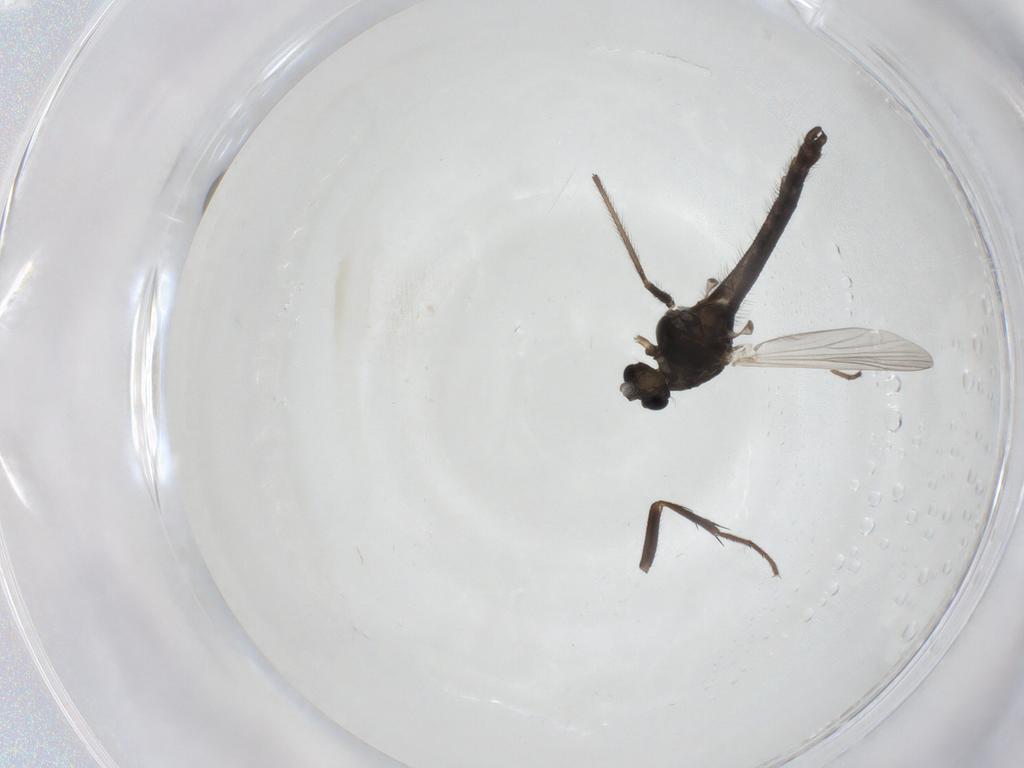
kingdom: Animalia
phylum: Arthropoda
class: Insecta
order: Diptera
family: Chironomidae
